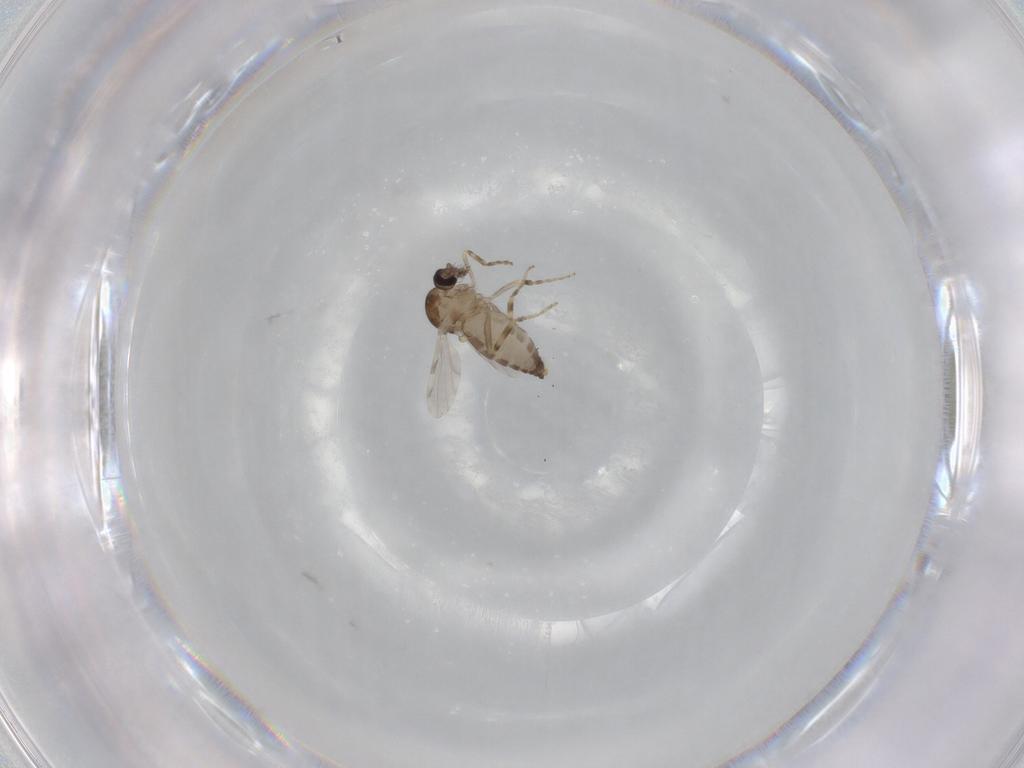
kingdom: Animalia
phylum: Arthropoda
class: Insecta
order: Diptera
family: Ceratopogonidae
